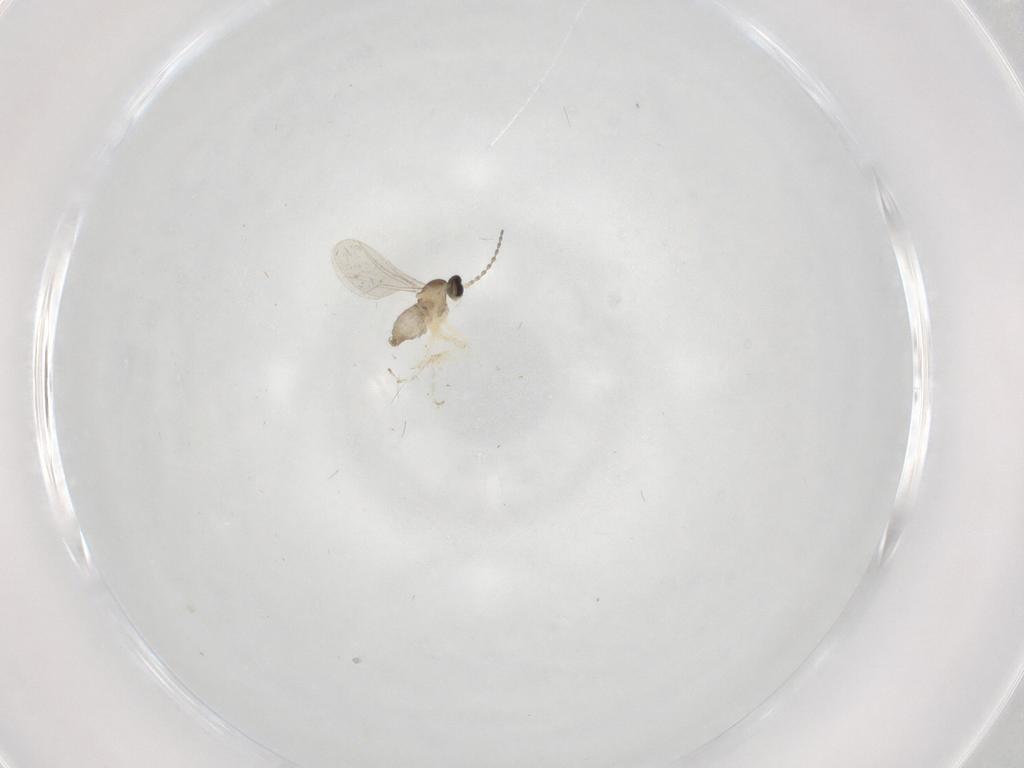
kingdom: Animalia
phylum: Arthropoda
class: Insecta
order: Diptera
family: Cecidomyiidae
